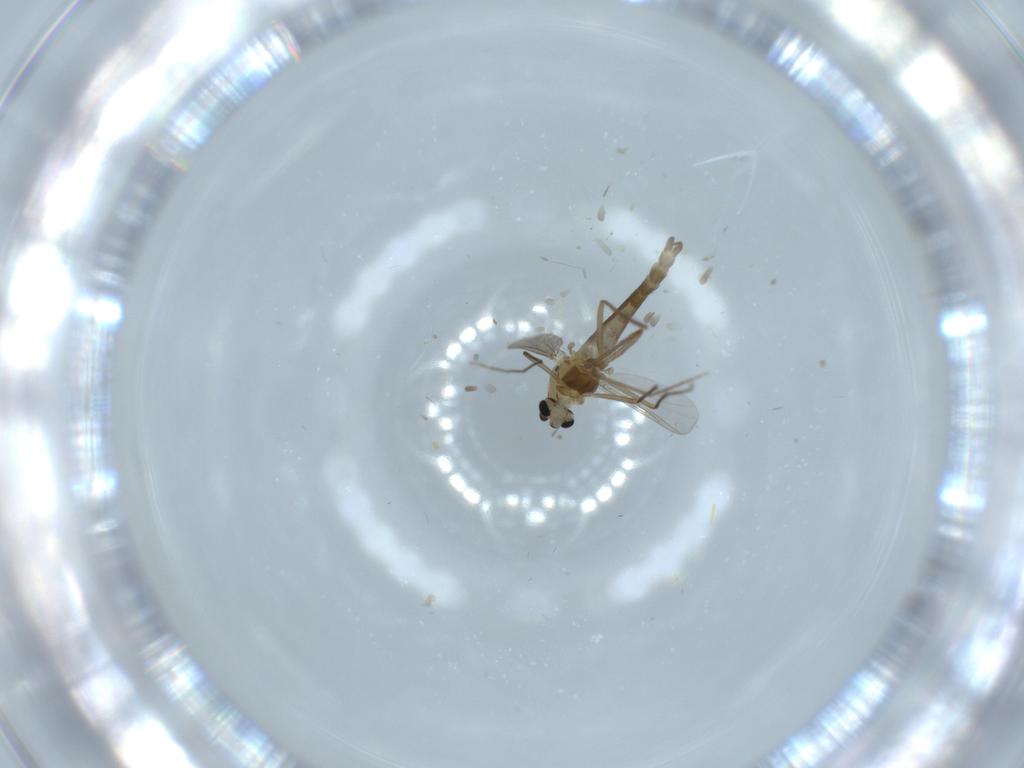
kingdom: Animalia
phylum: Arthropoda
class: Insecta
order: Diptera
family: Chironomidae
